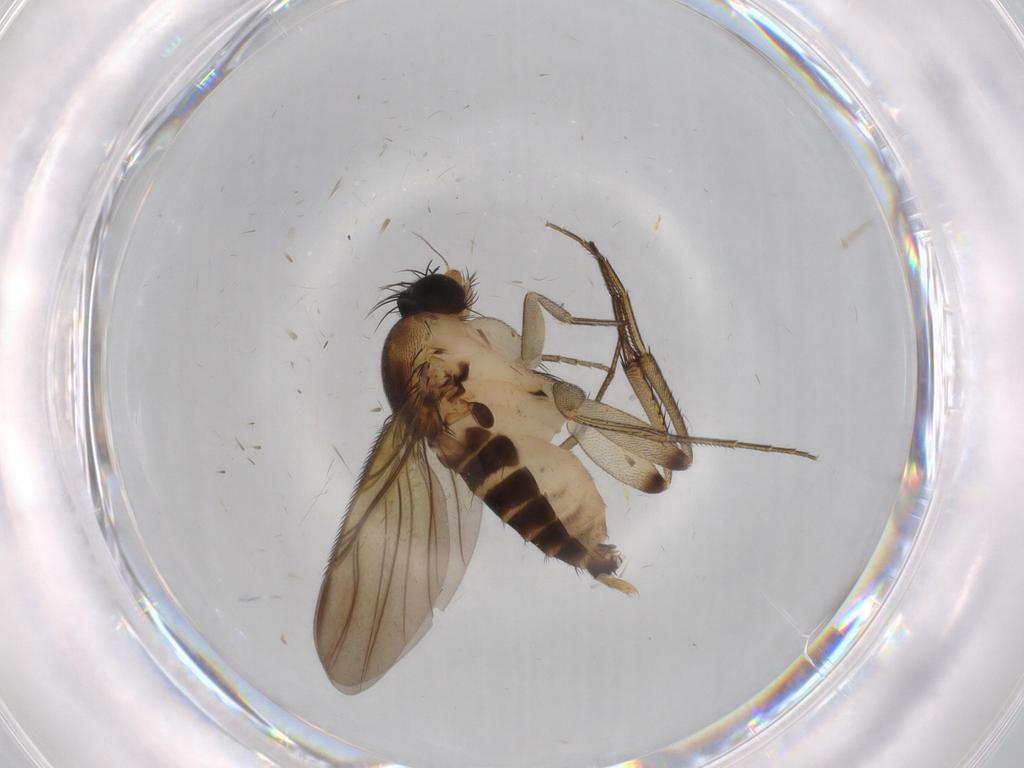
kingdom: Animalia
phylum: Arthropoda
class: Insecta
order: Diptera
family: Phoridae
